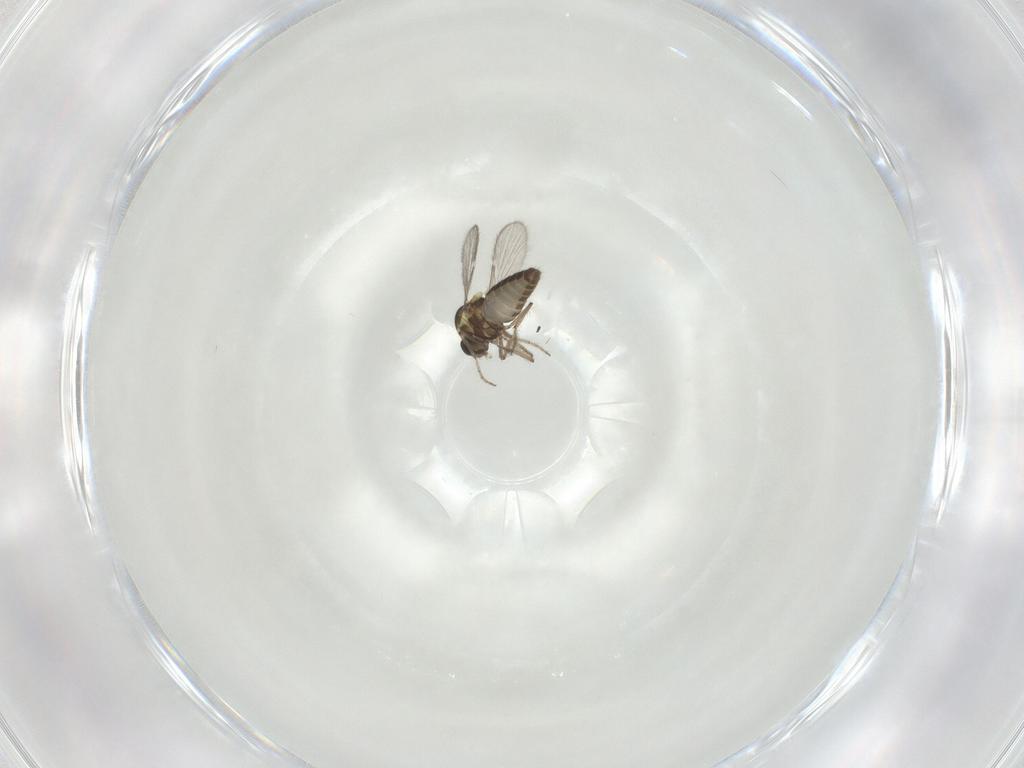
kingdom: Animalia
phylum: Arthropoda
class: Insecta
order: Diptera
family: Ceratopogonidae
